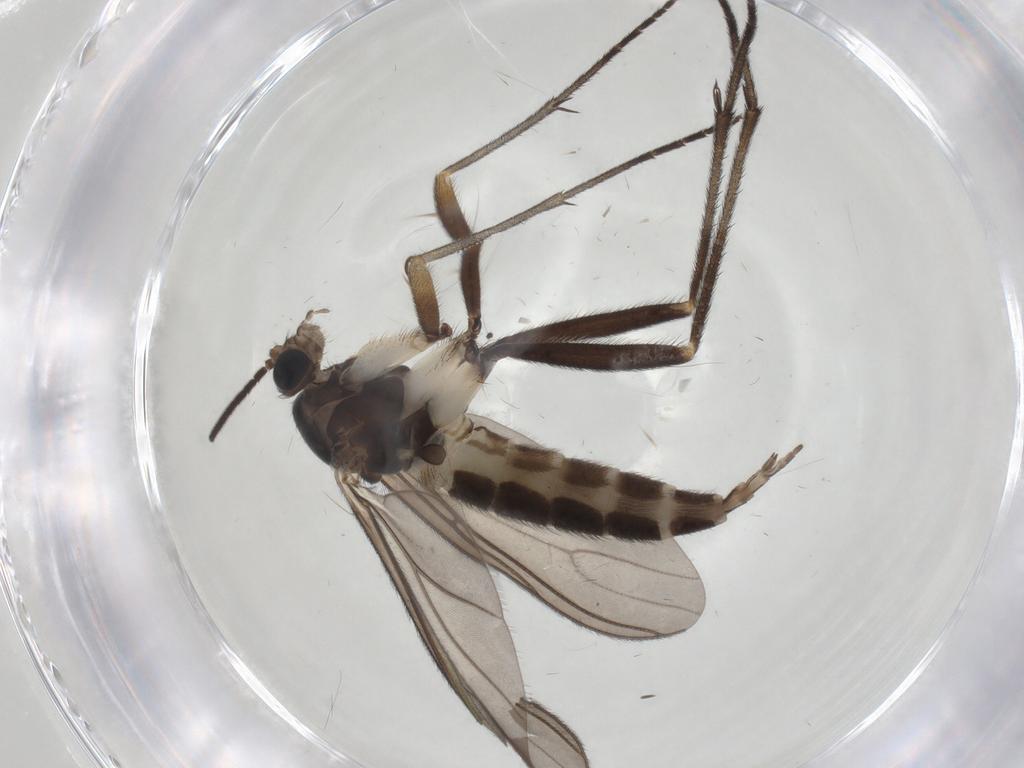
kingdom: Animalia
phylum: Arthropoda
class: Insecta
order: Diptera
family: Sciaridae
